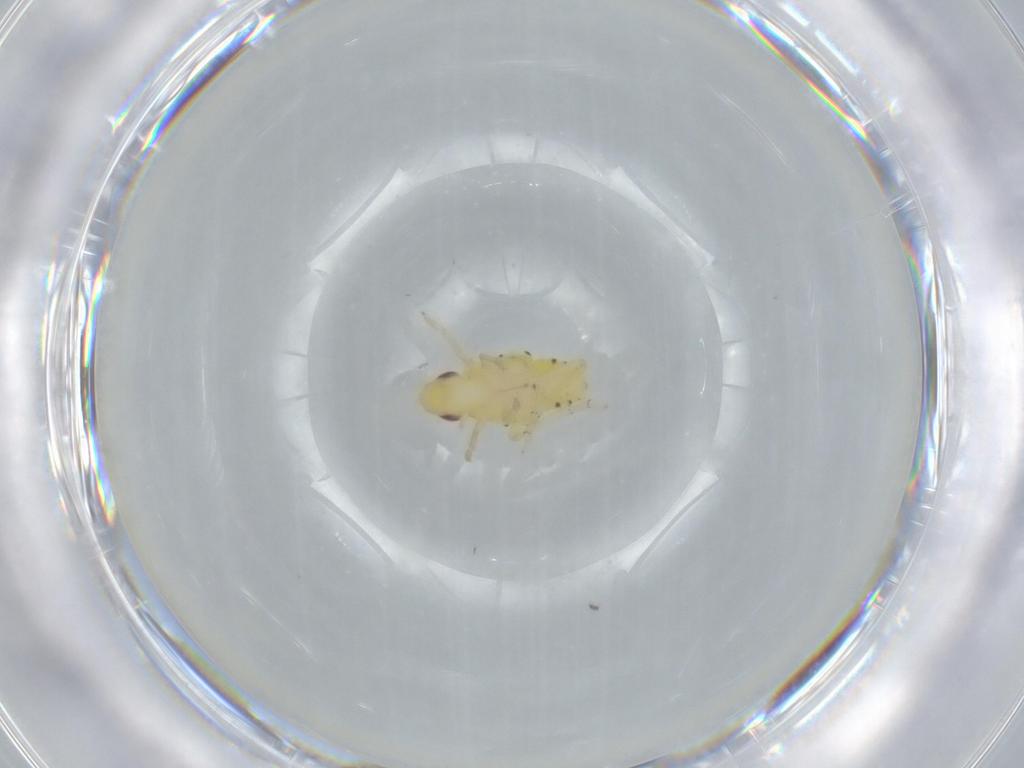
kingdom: Animalia
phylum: Arthropoda
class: Insecta
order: Hemiptera
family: Tropiduchidae
